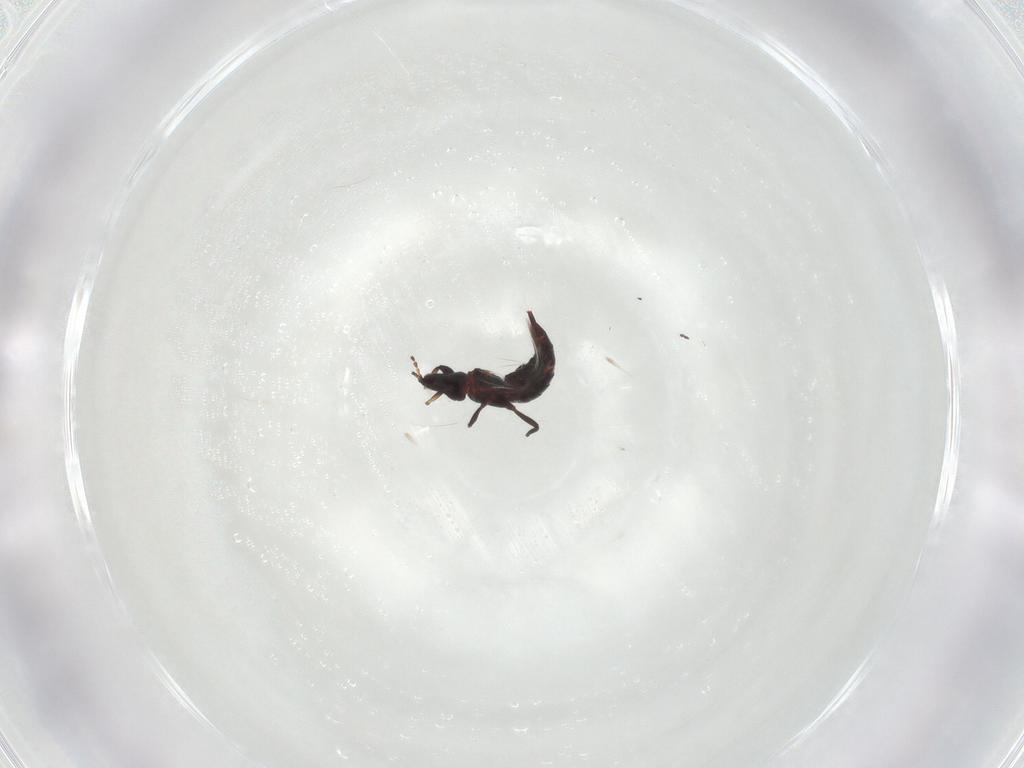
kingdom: Animalia
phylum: Arthropoda
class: Insecta
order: Thysanoptera
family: Phlaeothripidae
